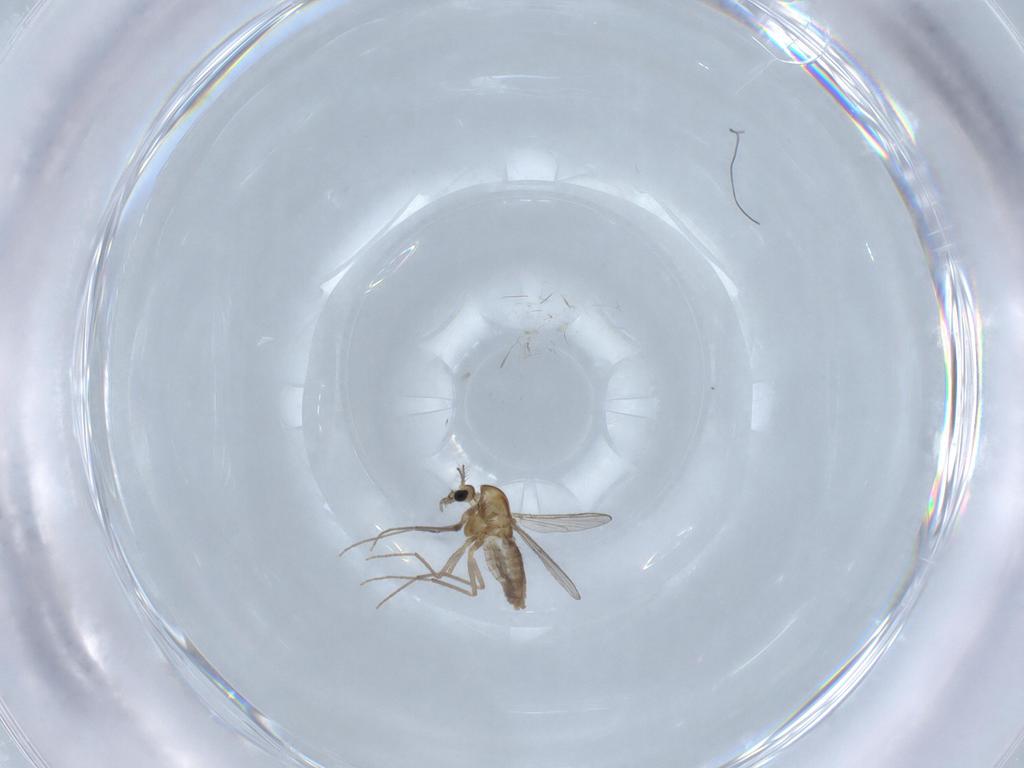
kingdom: Animalia
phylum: Arthropoda
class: Insecta
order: Diptera
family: Chironomidae
